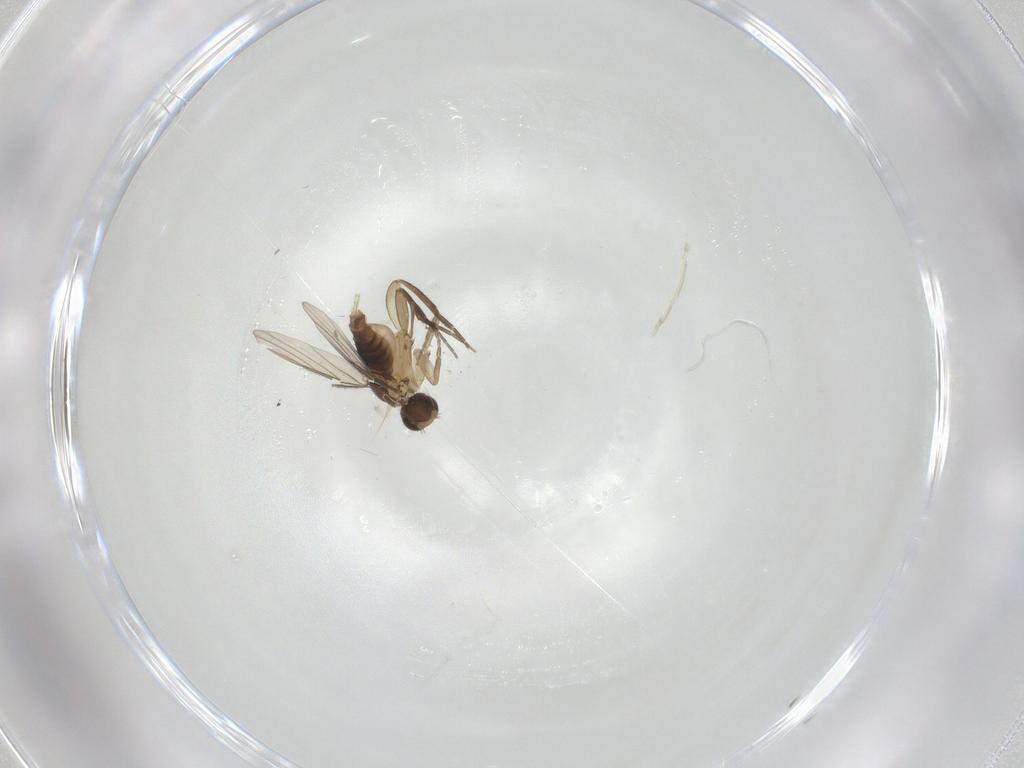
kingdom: Animalia
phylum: Arthropoda
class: Insecta
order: Diptera
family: Phoridae
